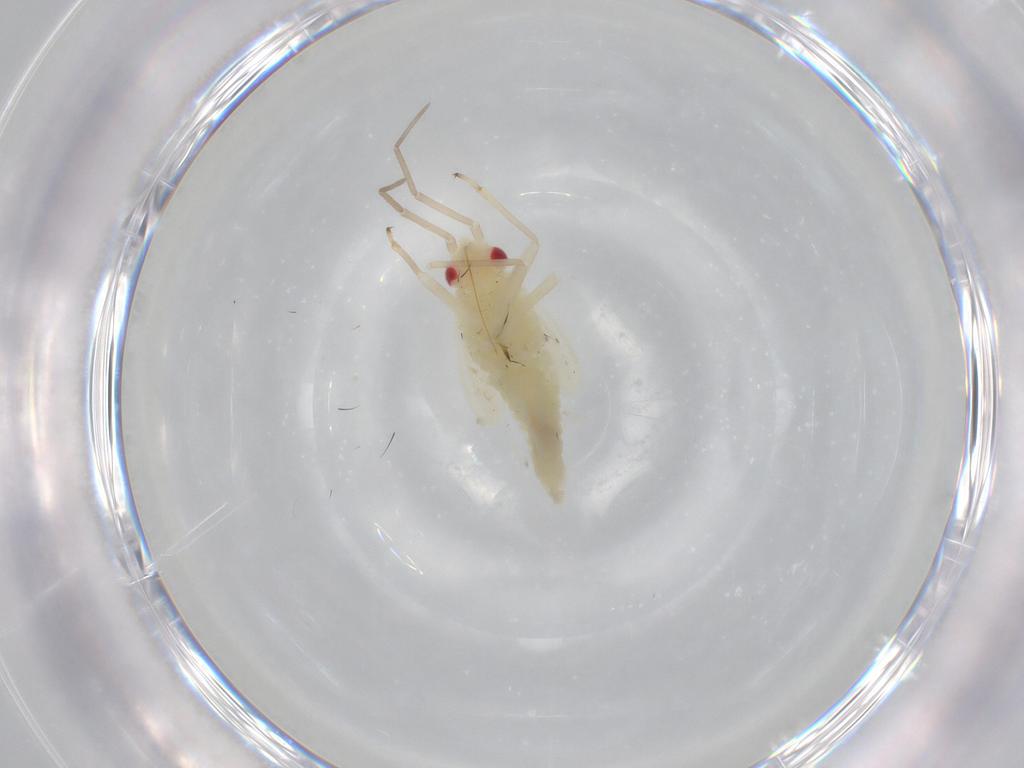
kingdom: Animalia
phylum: Arthropoda
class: Insecta
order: Hemiptera
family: Miridae
